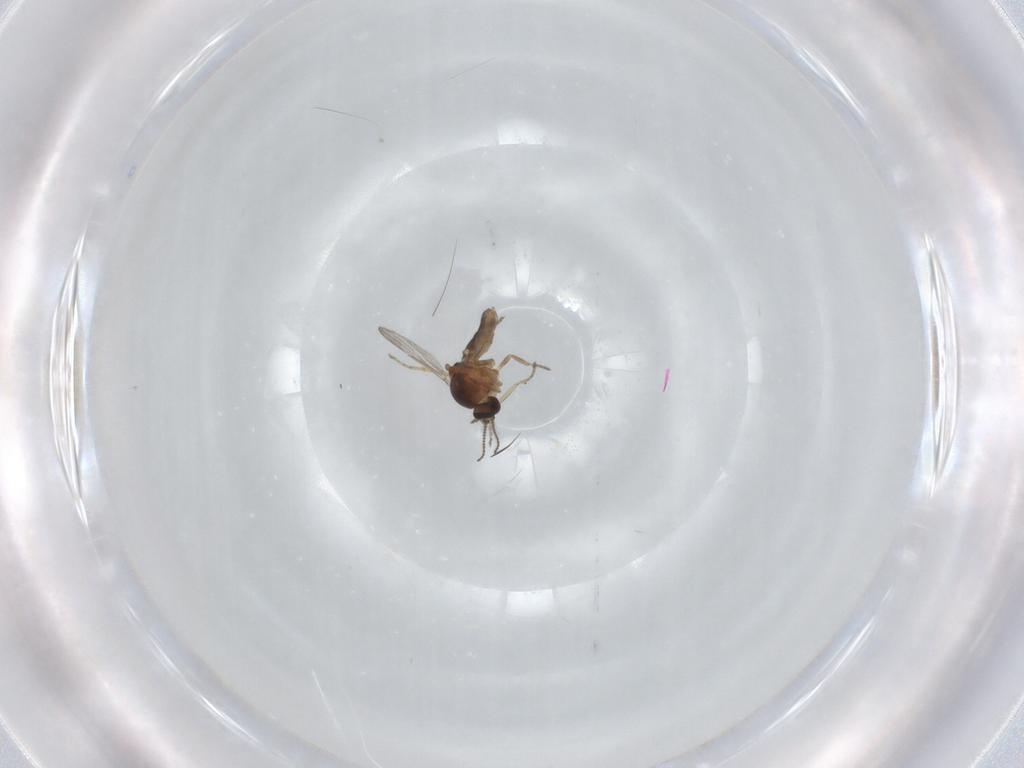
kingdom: Animalia
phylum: Arthropoda
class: Insecta
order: Diptera
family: Ceratopogonidae
